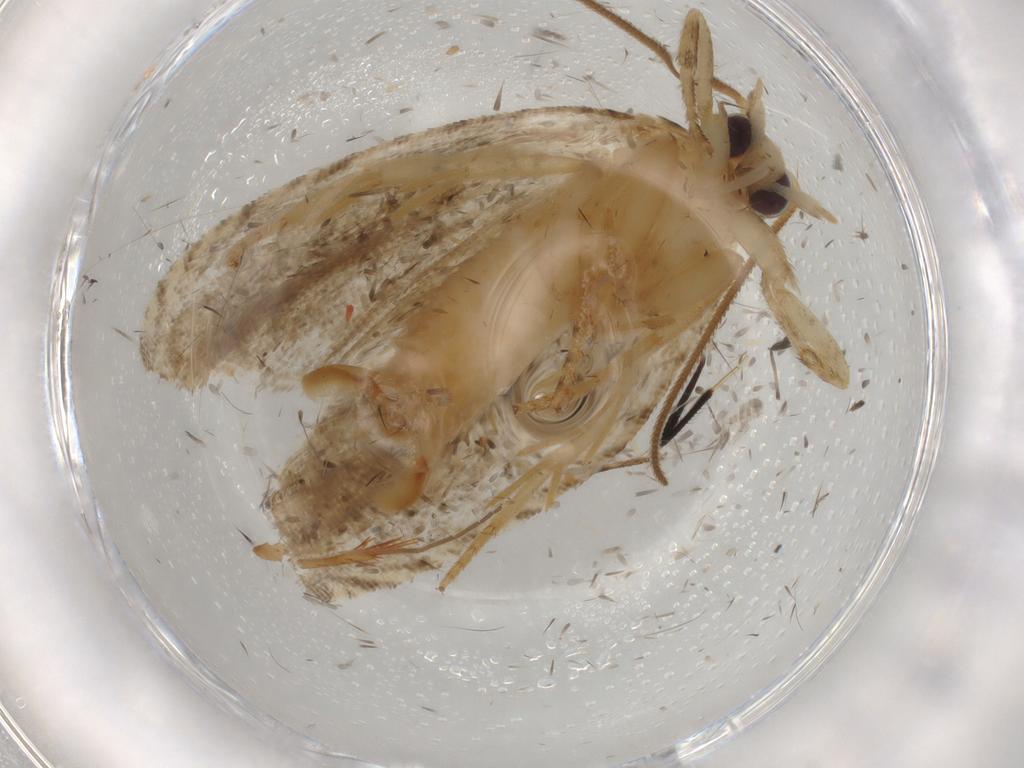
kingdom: Animalia
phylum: Arthropoda
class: Insecta
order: Lepidoptera
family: Tortricidae
